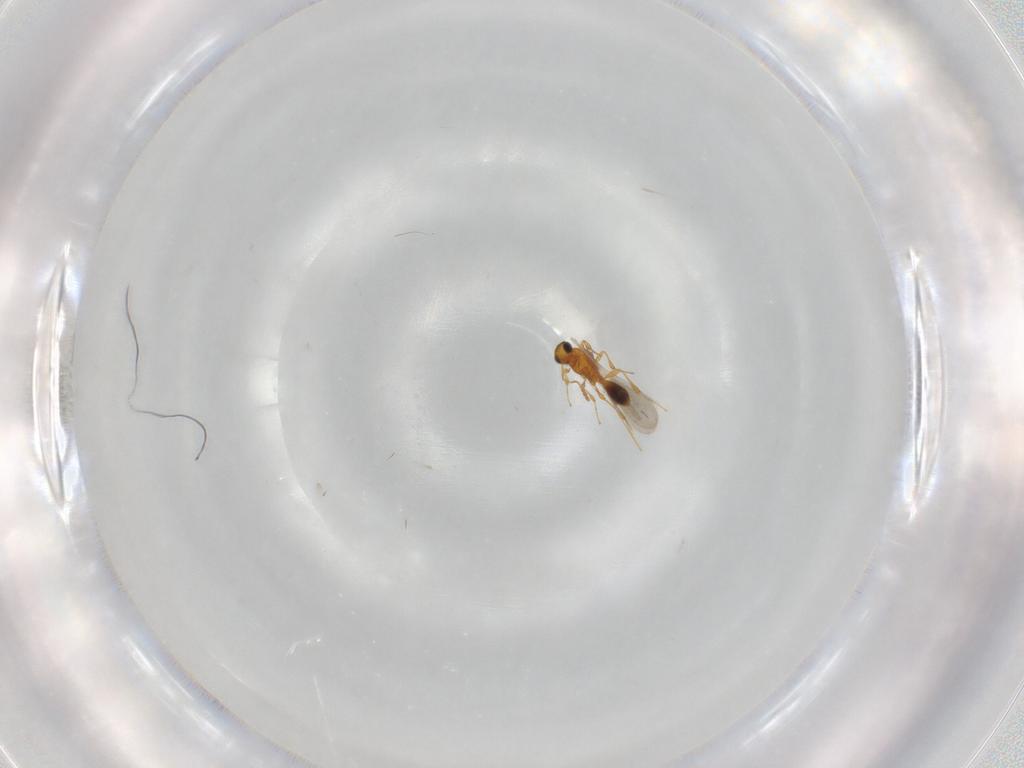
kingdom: Animalia
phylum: Arthropoda
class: Insecta
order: Hymenoptera
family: Platygastridae
